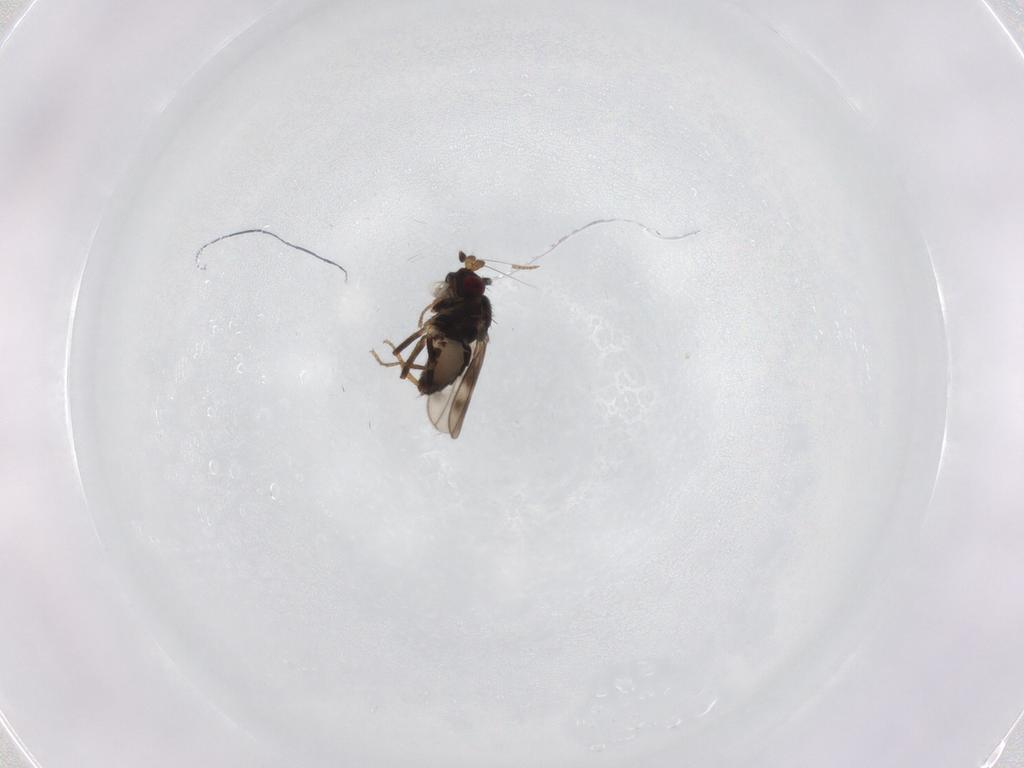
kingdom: Animalia
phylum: Arthropoda
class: Insecta
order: Diptera
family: Sphaeroceridae
